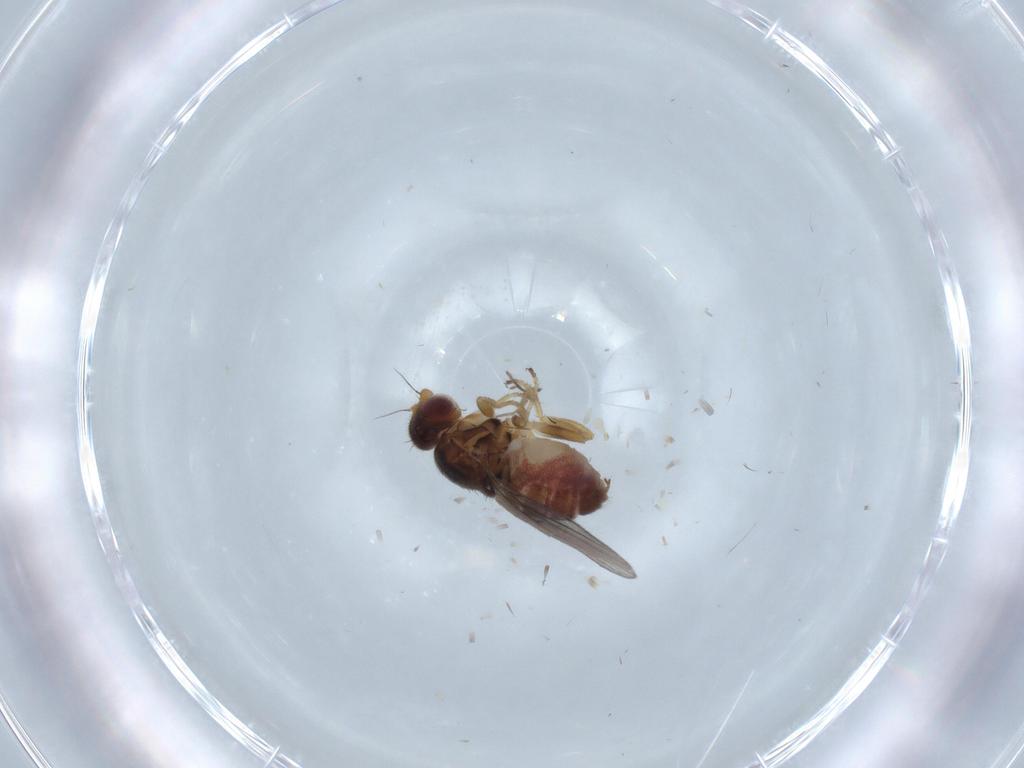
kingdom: Animalia
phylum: Arthropoda
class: Insecta
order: Diptera
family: Chloropidae
